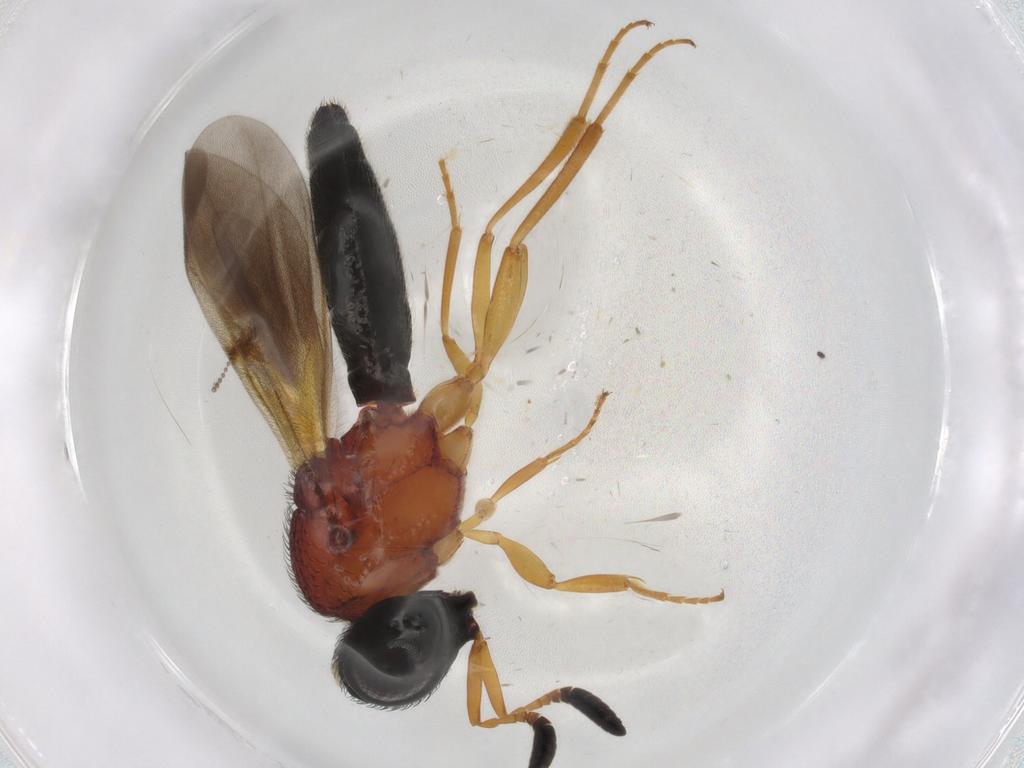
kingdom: Animalia
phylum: Arthropoda
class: Insecta
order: Hymenoptera
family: Scelionidae
